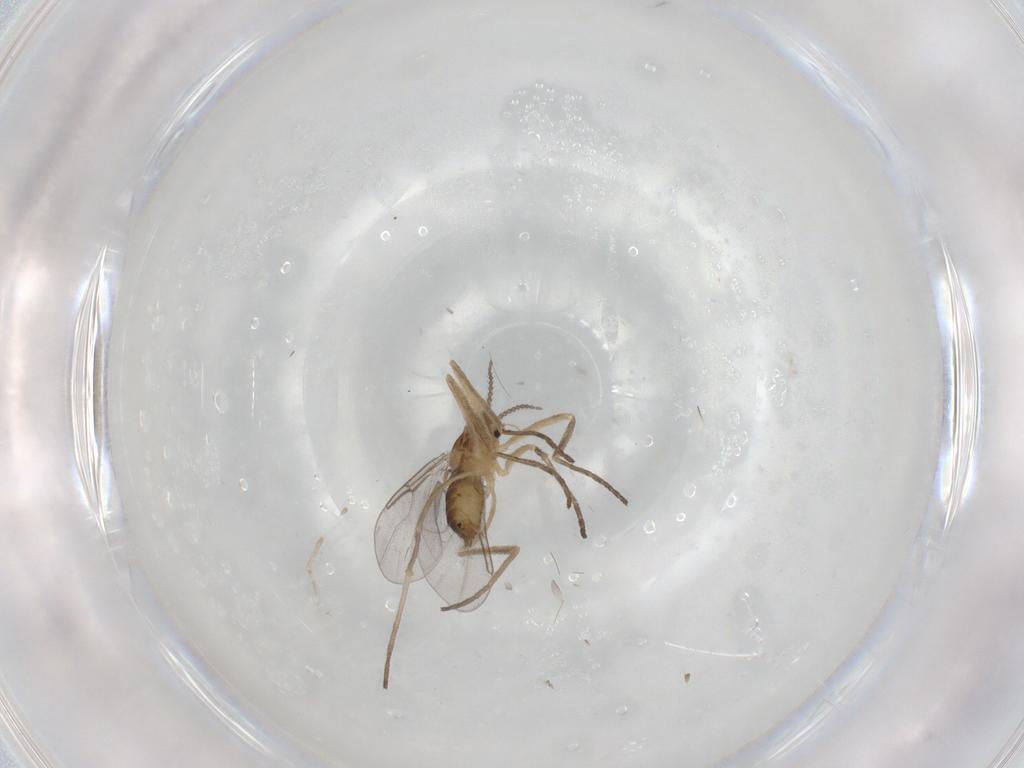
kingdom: Animalia
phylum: Arthropoda
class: Insecta
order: Diptera
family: Cecidomyiidae
